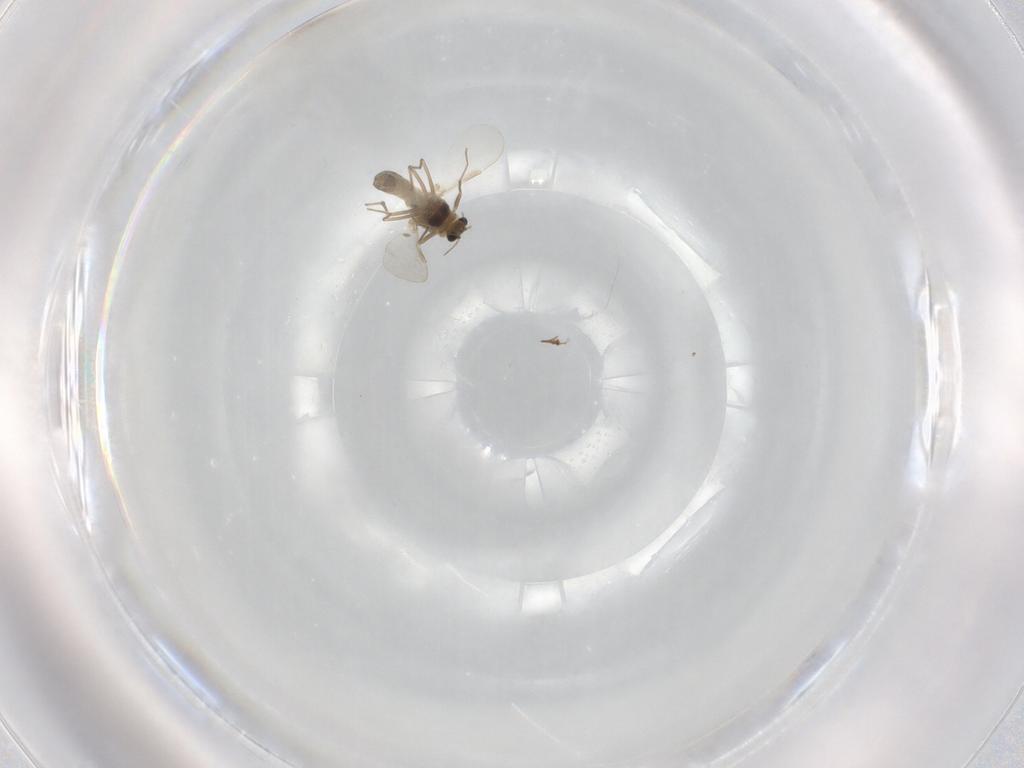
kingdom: Animalia
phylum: Arthropoda
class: Insecta
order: Diptera
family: Chironomidae
